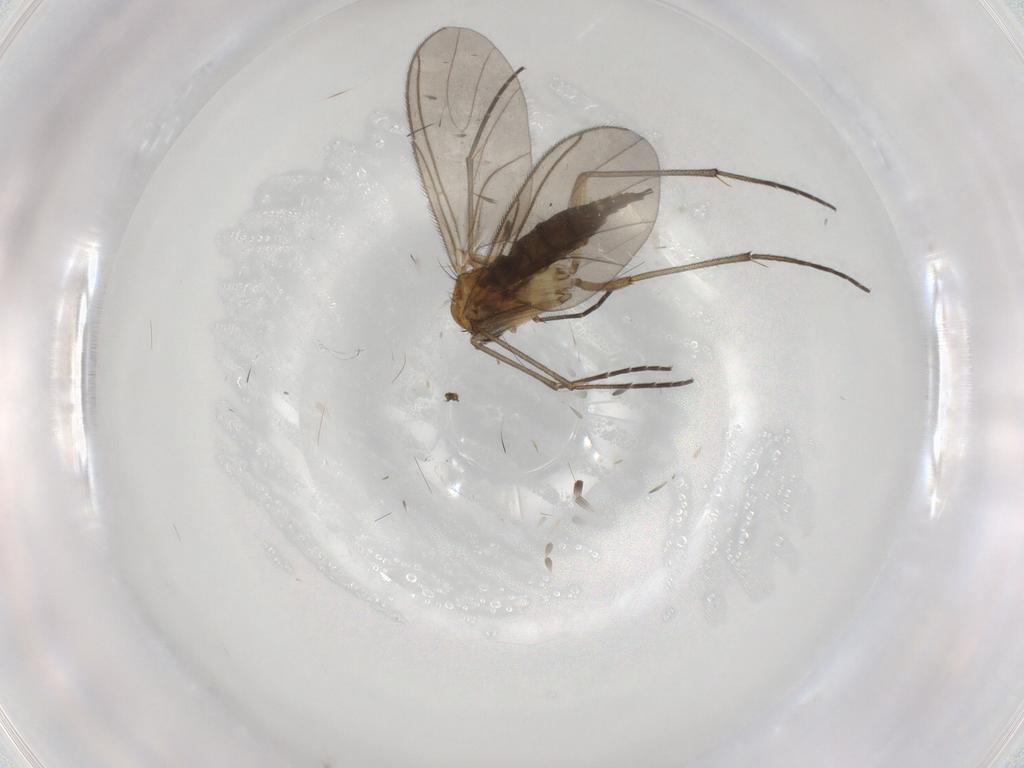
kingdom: Animalia
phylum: Arthropoda
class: Insecta
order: Diptera
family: Sciaridae
